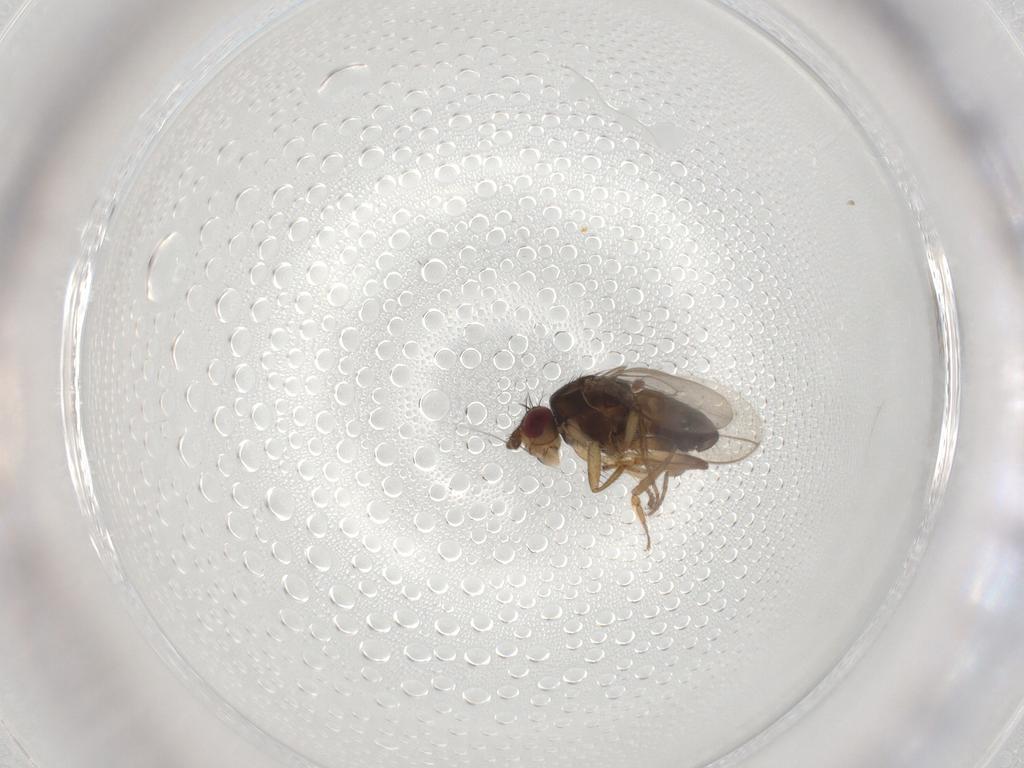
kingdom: Animalia
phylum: Arthropoda
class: Insecta
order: Diptera
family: Sphaeroceridae
